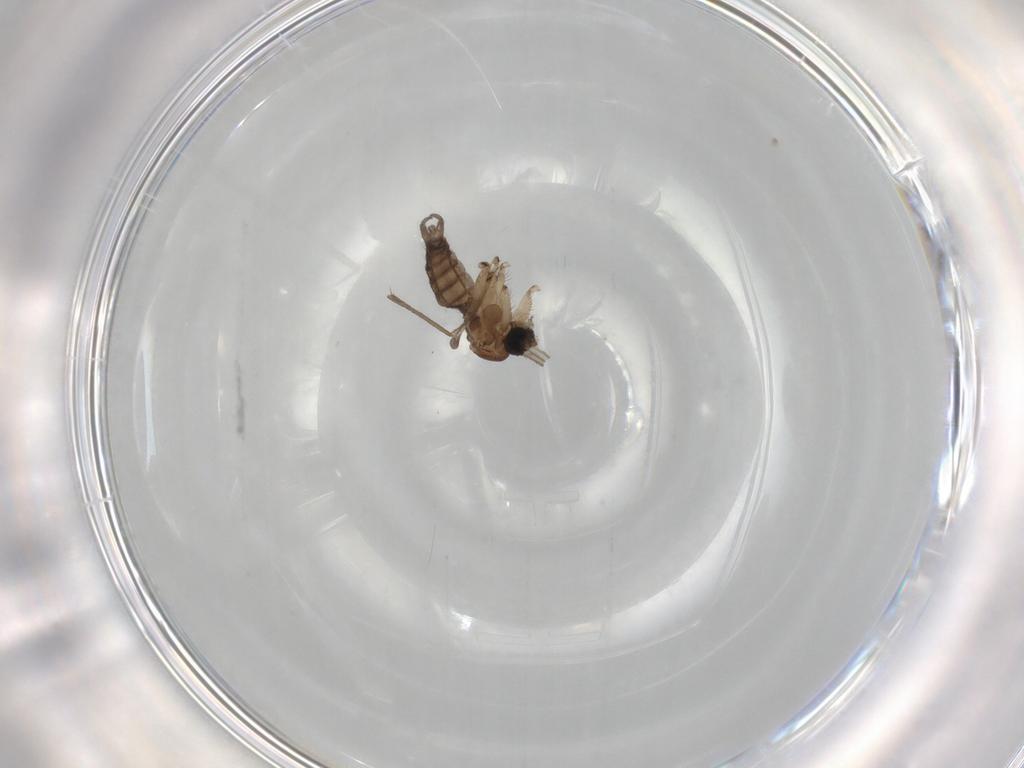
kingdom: Animalia
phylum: Arthropoda
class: Insecta
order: Diptera
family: Sciaridae
